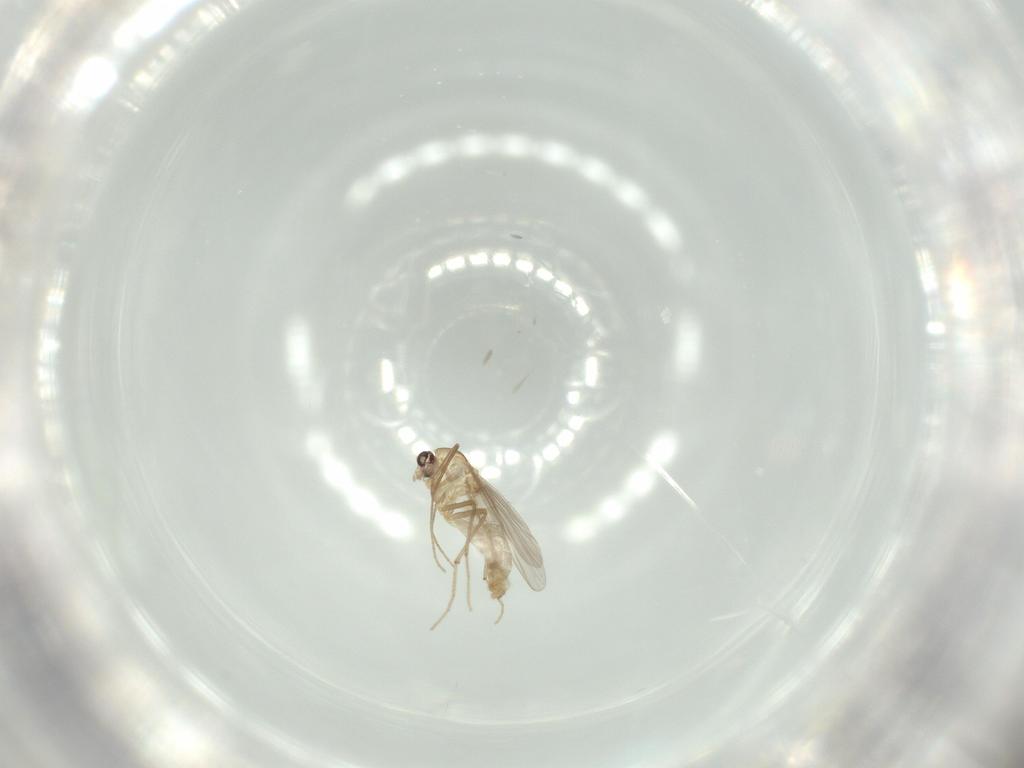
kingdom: Animalia
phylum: Arthropoda
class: Insecta
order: Diptera
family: Chironomidae
